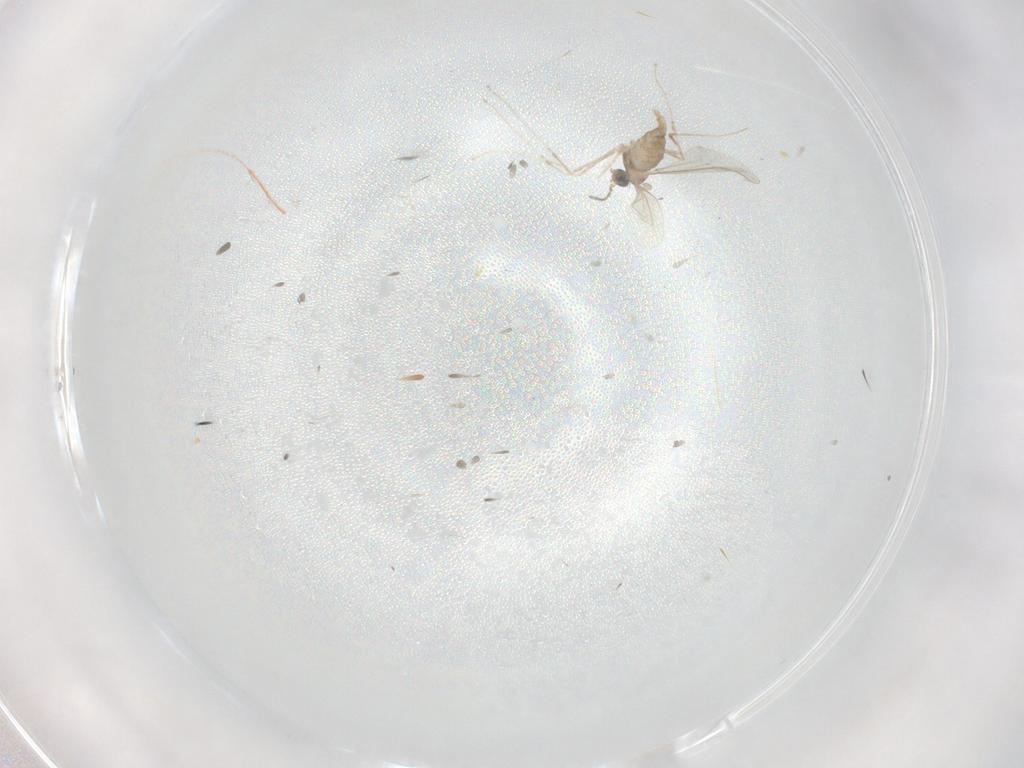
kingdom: Animalia
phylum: Arthropoda
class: Insecta
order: Diptera
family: Cecidomyiidae
